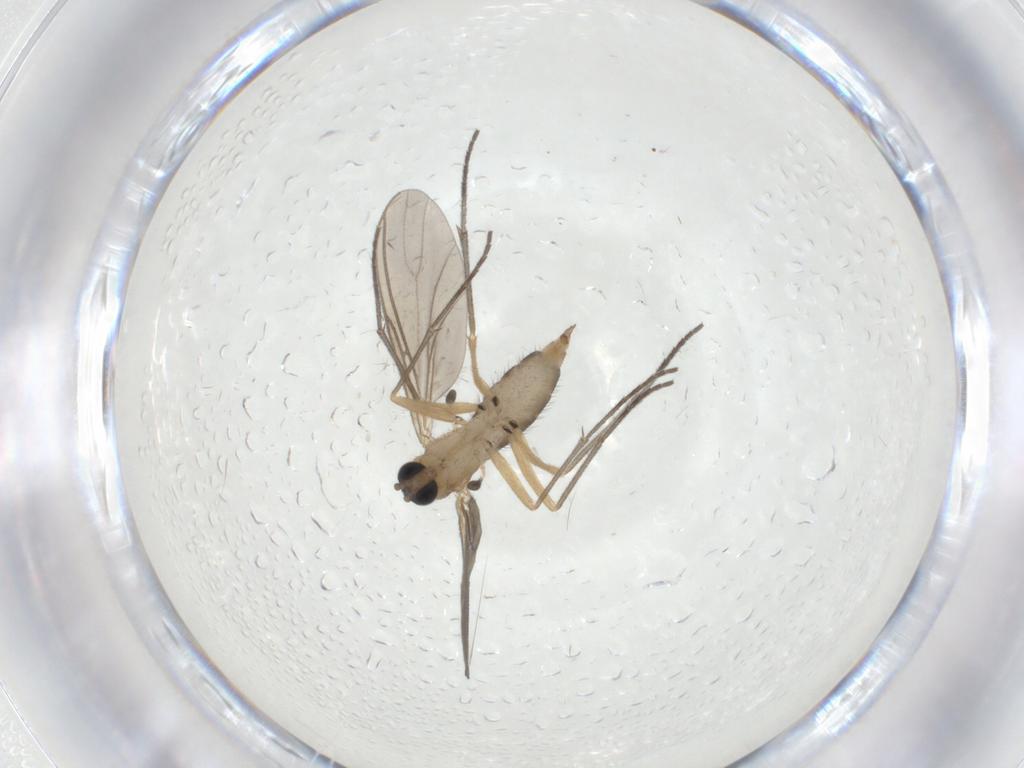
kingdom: Animalia
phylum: Arthropoda
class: Insecta
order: Diptera
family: Sciaridae
